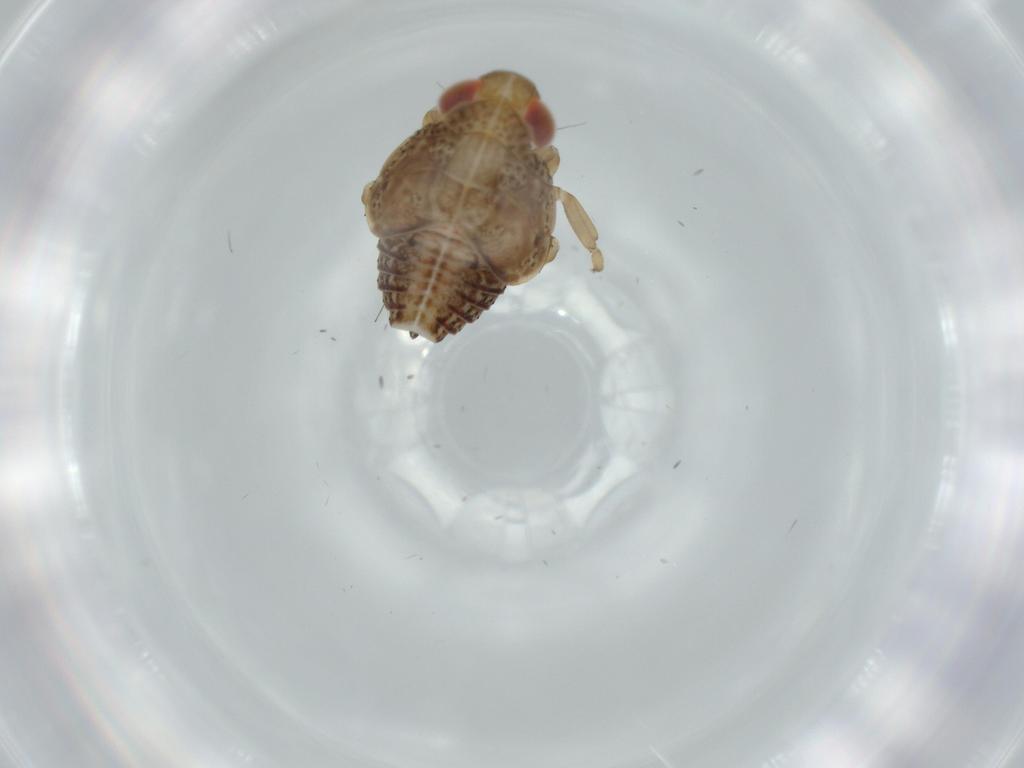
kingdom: Animalia
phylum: Arthropoda
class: Insecta
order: Hemiptera
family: Issidae
